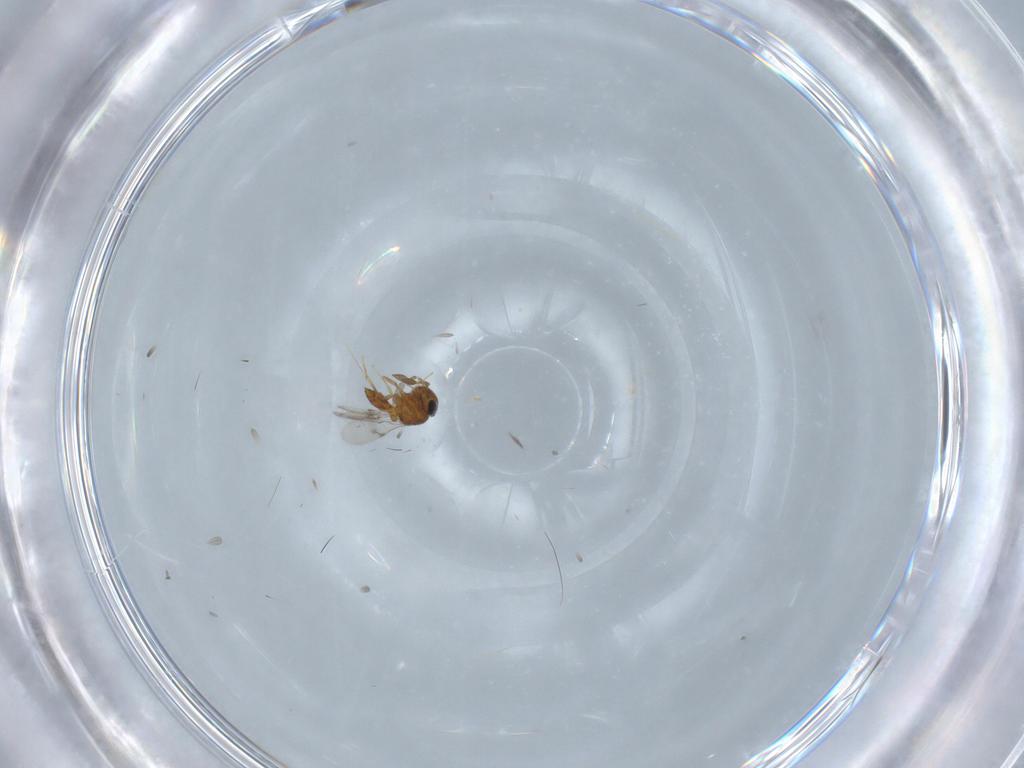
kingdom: Animalia
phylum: Arthropoda
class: Insecta
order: Hymenoptera
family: Scelionidae
